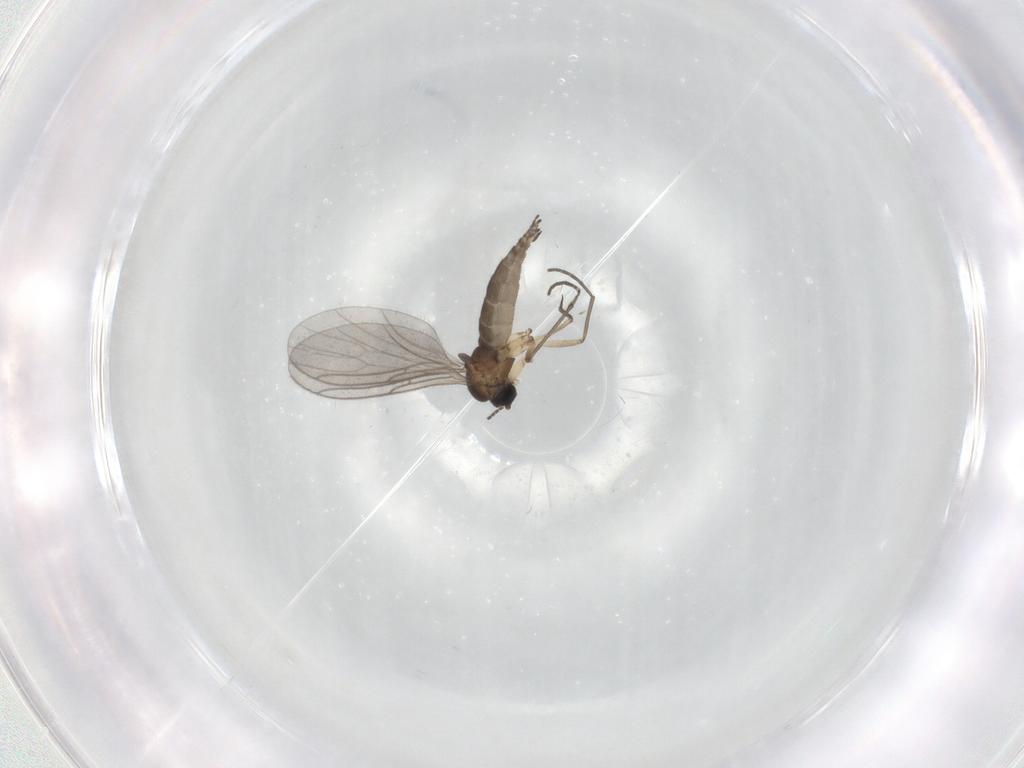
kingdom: Animalia
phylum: Arthropoda
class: Insecta
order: Diptera
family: Sciaridae
